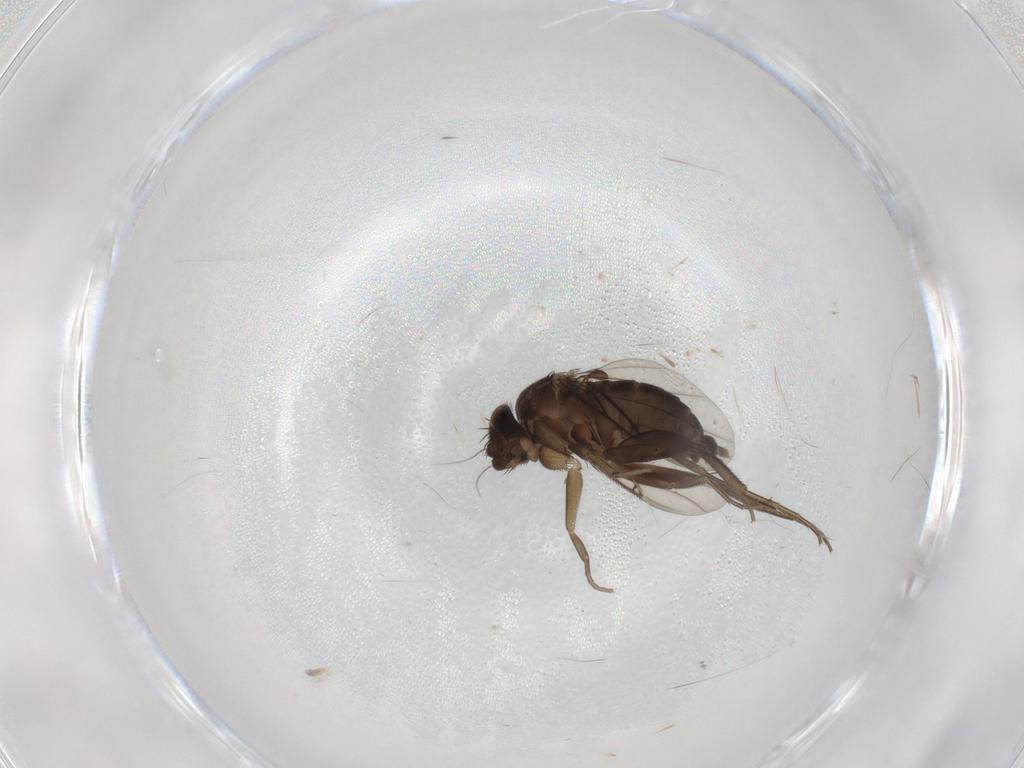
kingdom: Animalia
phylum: Arthropoda
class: Insecta
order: Diptera
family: Phoridae
